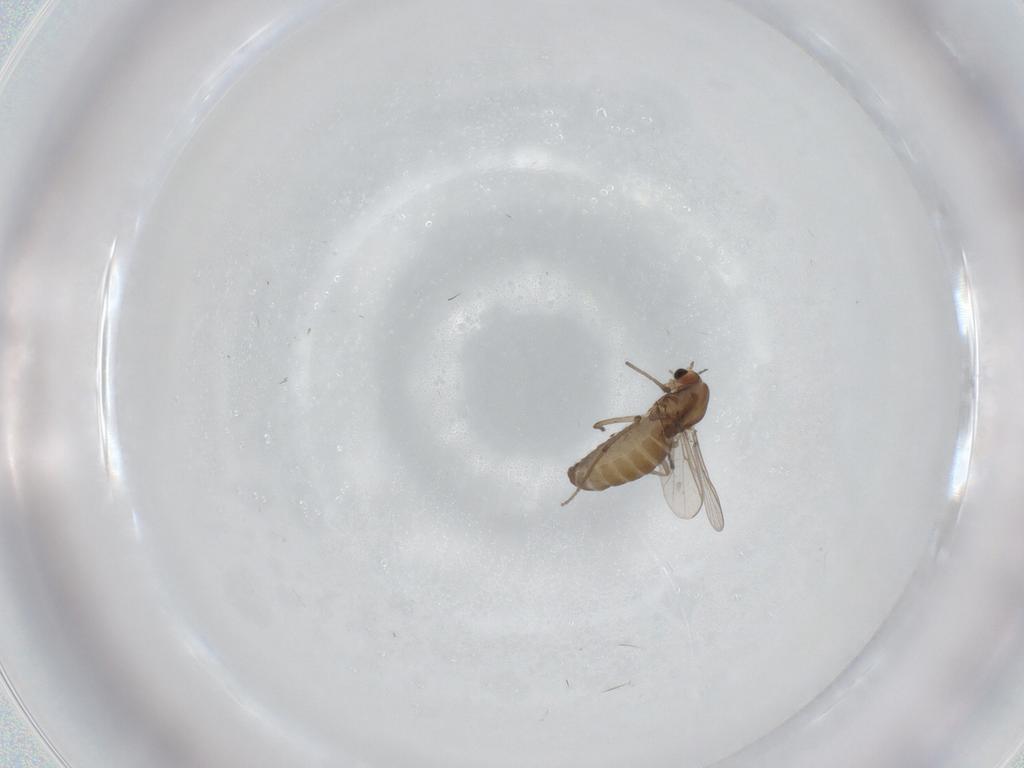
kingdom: Animalia
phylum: Arthropoda
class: Insecta
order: Diptera
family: Chironomidae
